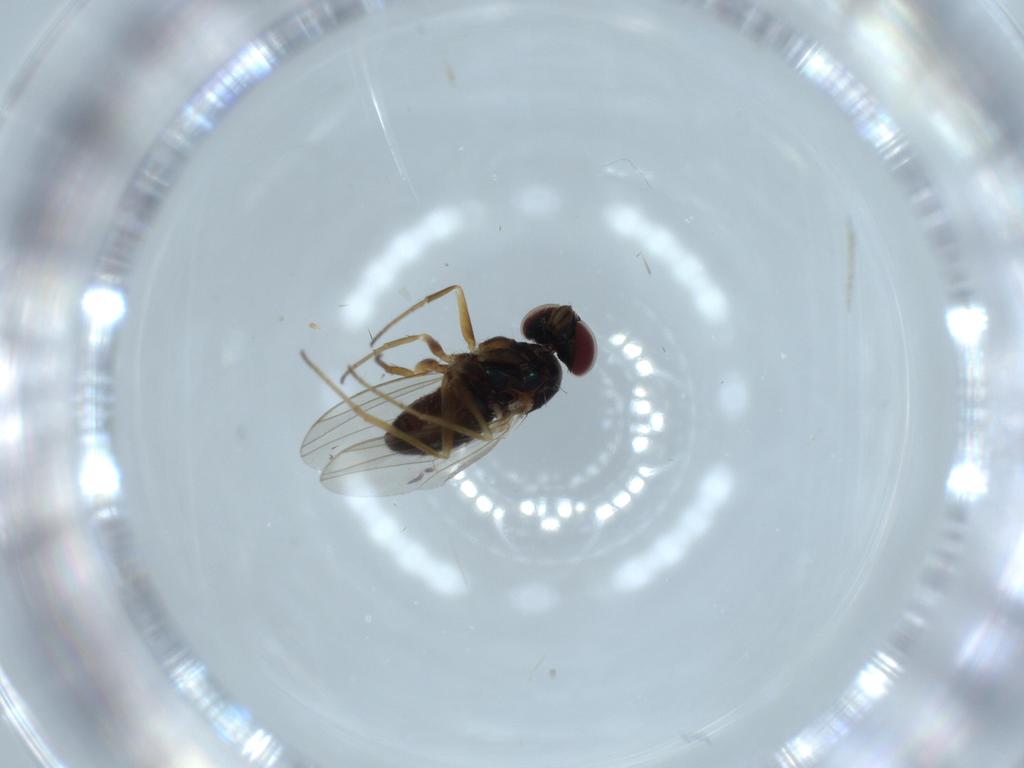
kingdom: Animalia
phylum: Arthropoda
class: Insecta
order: Diptera
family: Dolichopodidae
